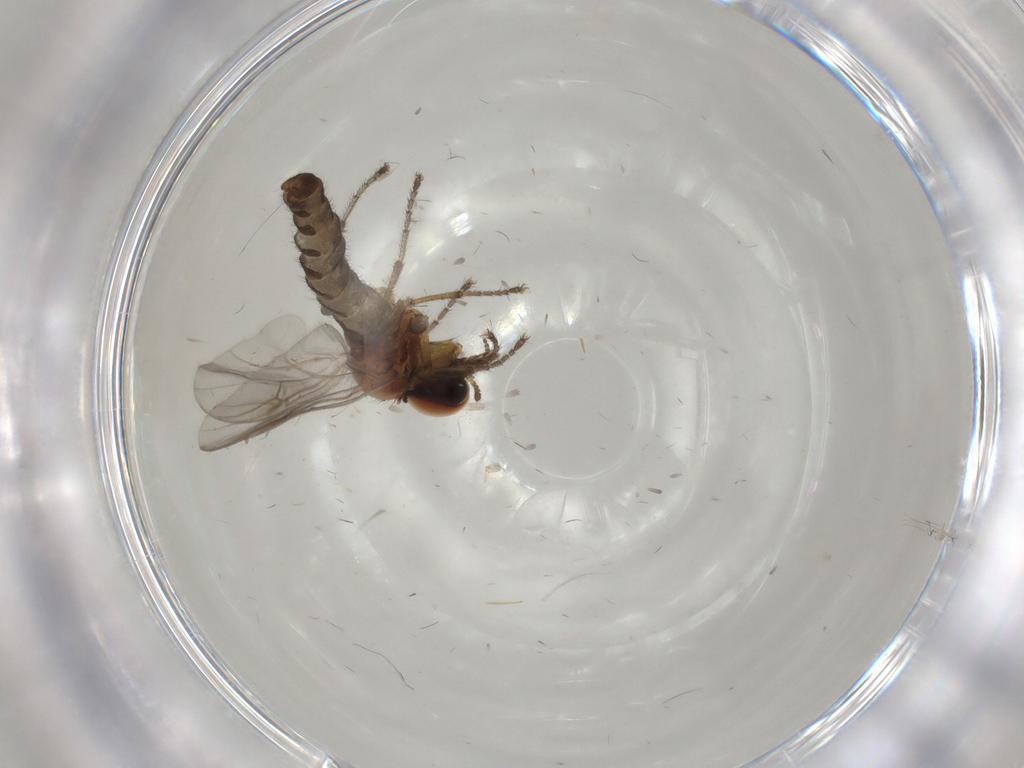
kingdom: Animalia
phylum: Arthropoda
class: Insecta
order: Diptera
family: Bibionidae
